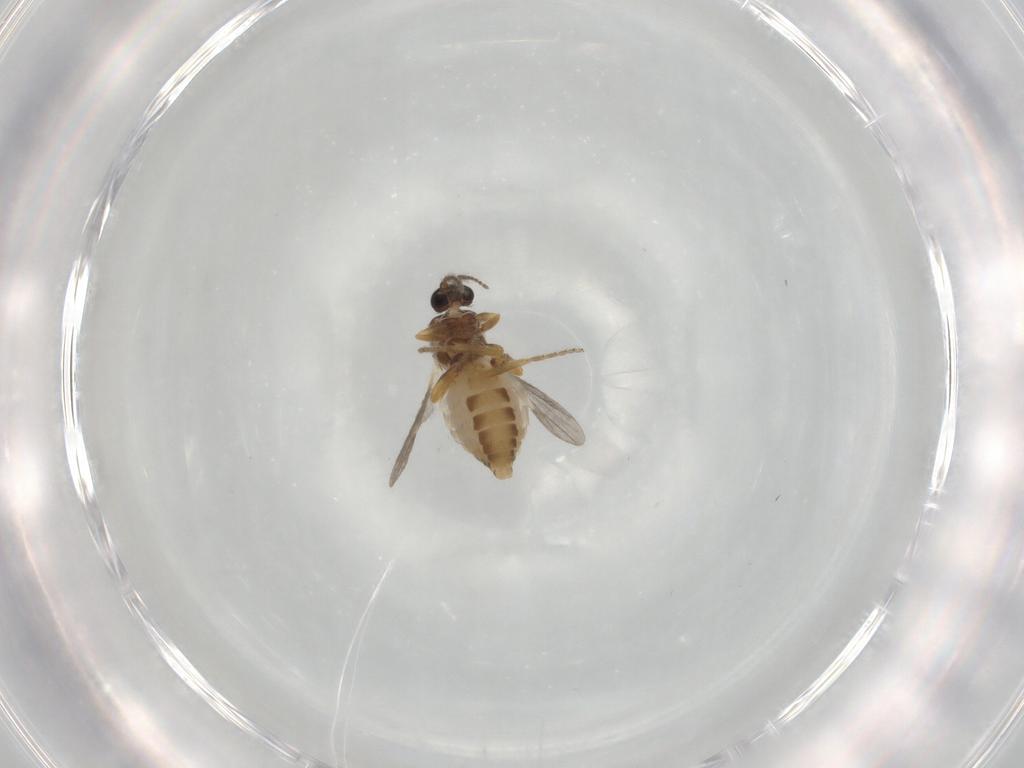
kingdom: Animalia
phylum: Arthropoda
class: Insecta
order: Diptera
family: Ceratopogonidae
